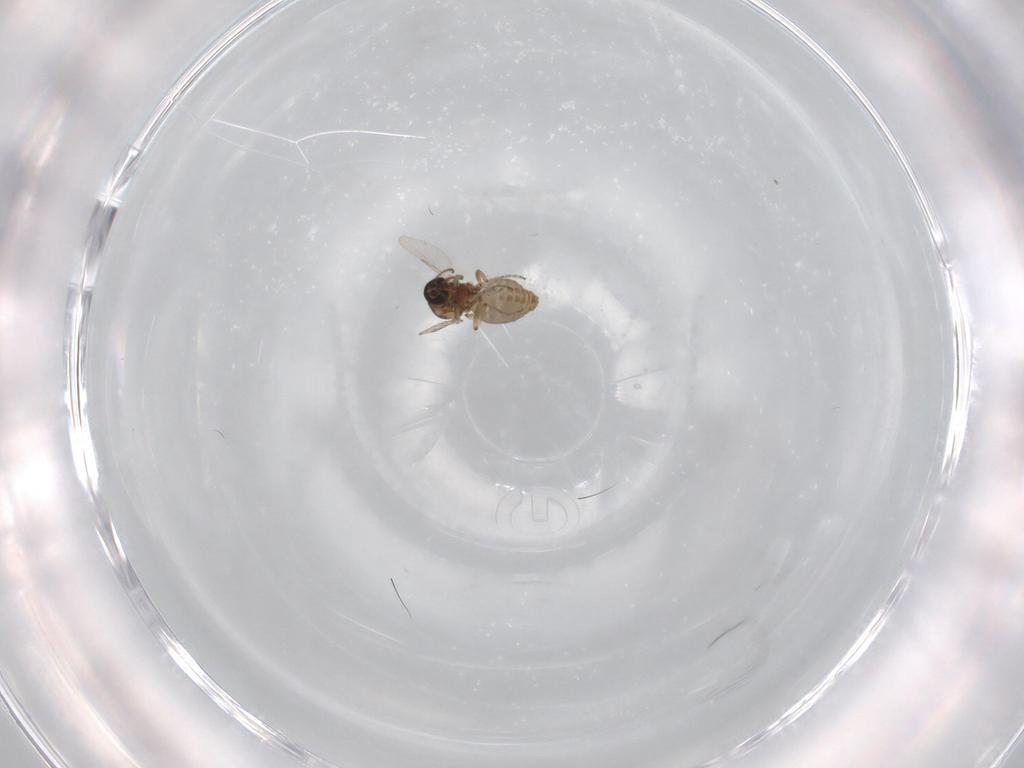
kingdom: Animalia
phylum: Arthropoda
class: Insecta
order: Diptera
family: Ceratopogonidae
